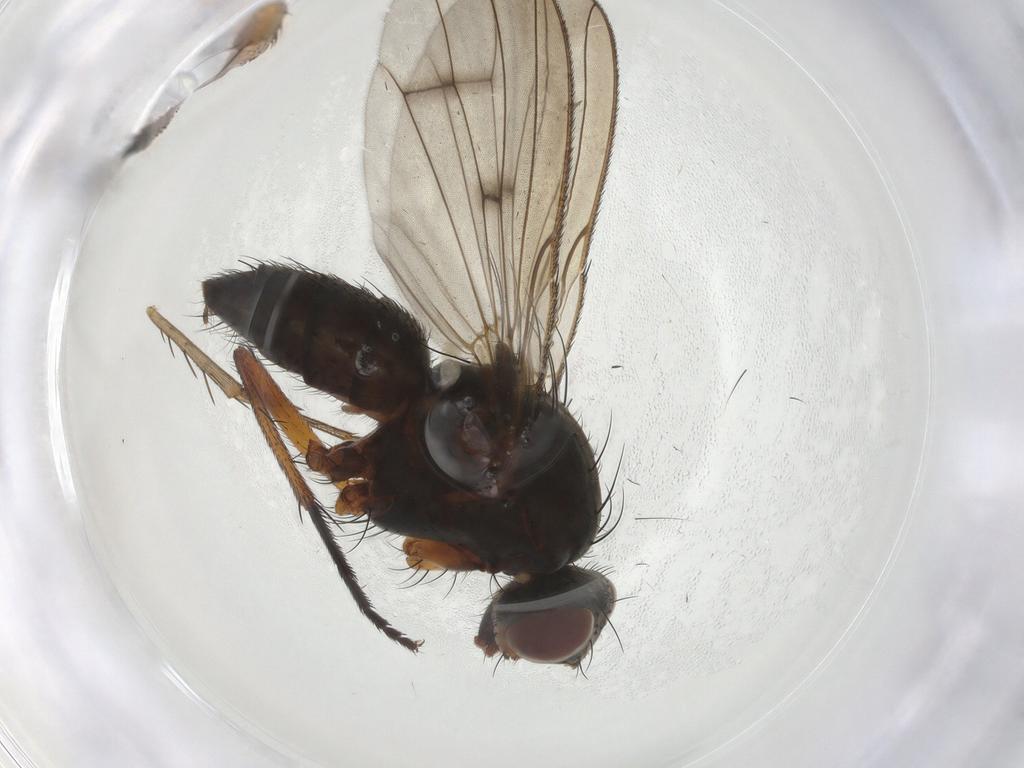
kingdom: Animalia
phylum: Arthropoda
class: Insecta
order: Diptera
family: Anthomyiidae
